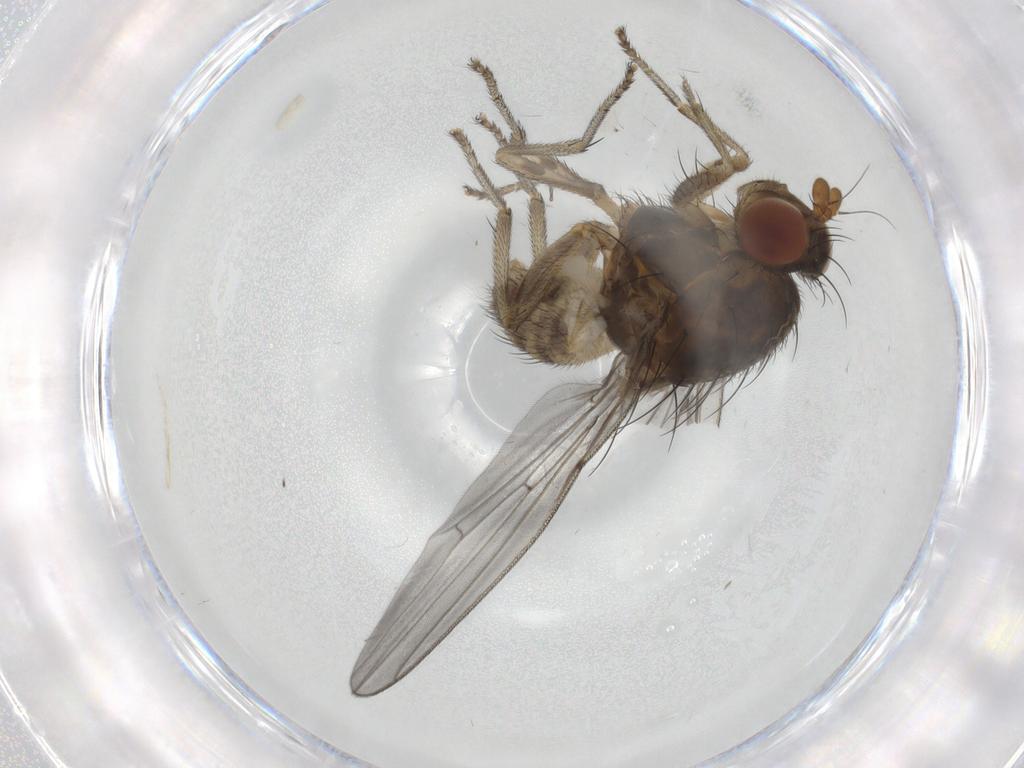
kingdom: Animalia
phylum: Arthropoda
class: Insecta
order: Diptera
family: Lauxaniidae
